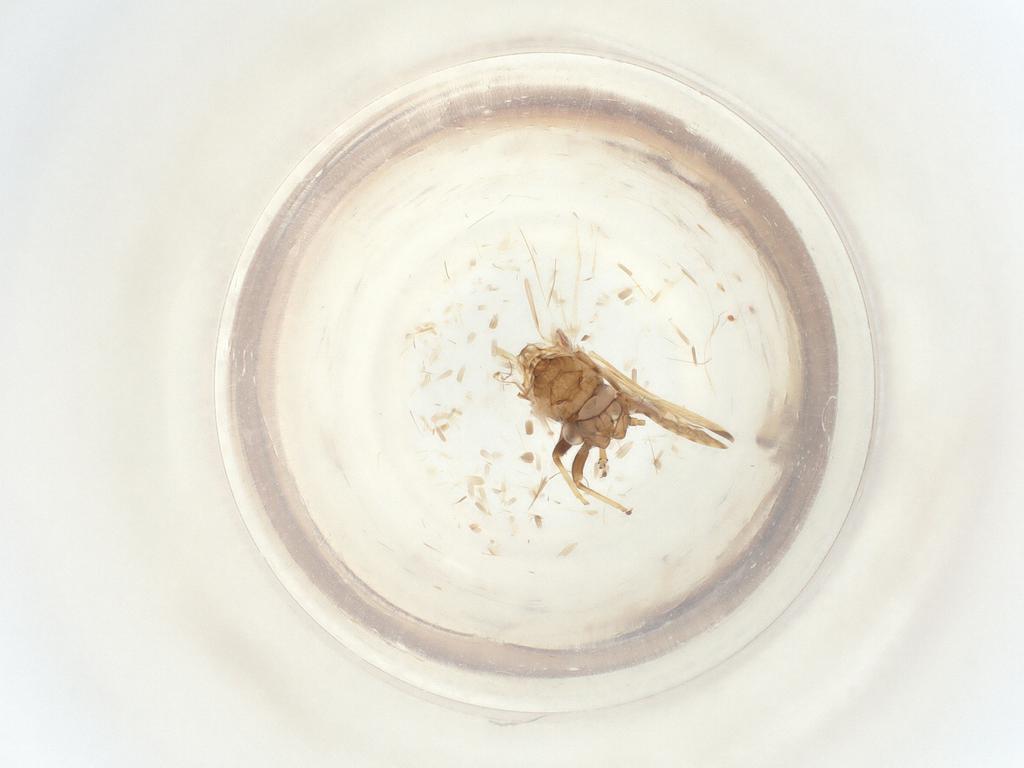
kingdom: Animalia
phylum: Arthropoda
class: Insecta
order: Hemiptera
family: Psyllidae
